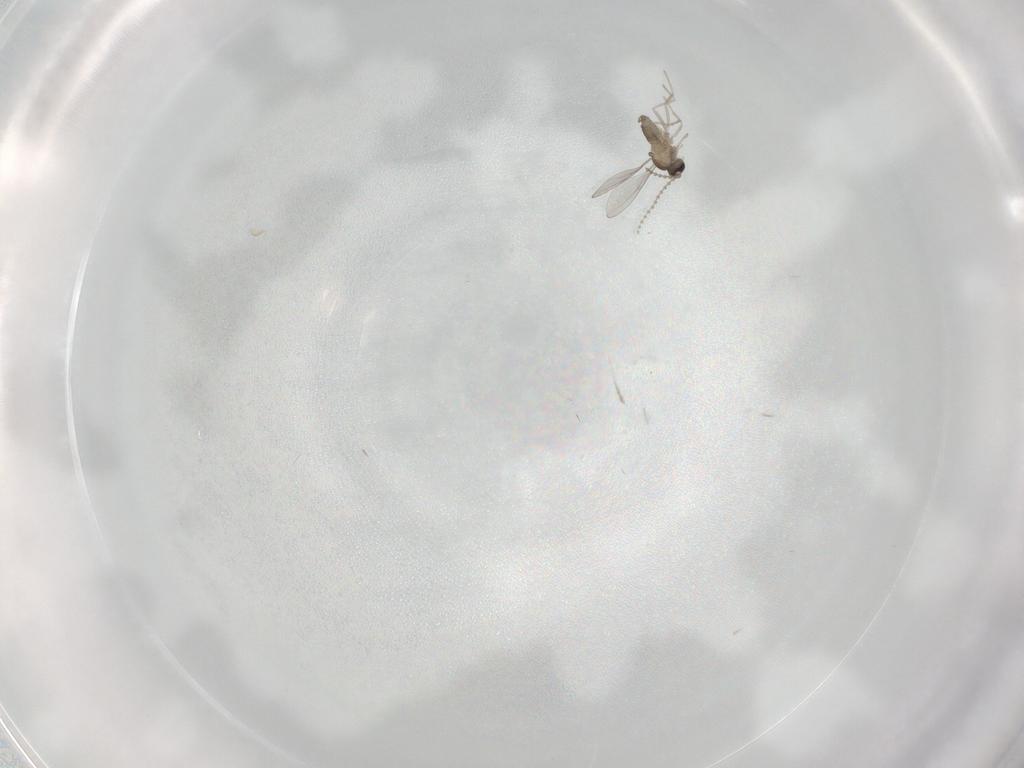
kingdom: Animalia
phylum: Arthropoda
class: Insecta
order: Diptera
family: Cecidomyiidae
